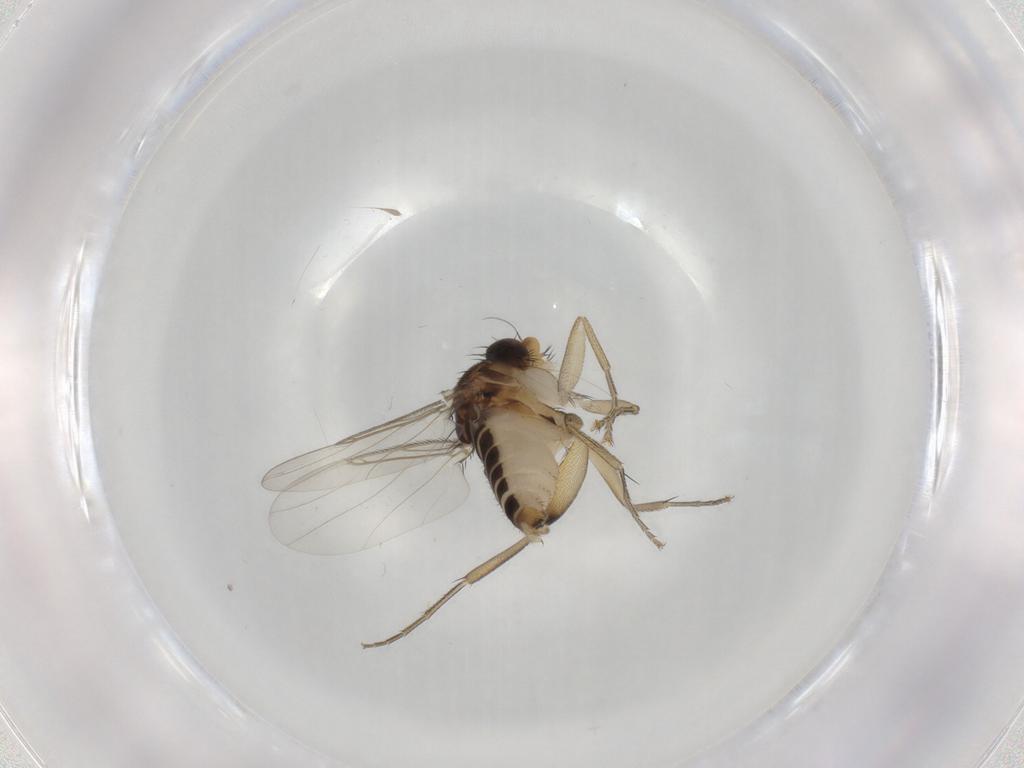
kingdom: Animalia
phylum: Arthropoda
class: Insecta
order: Diptera
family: Phoridae
